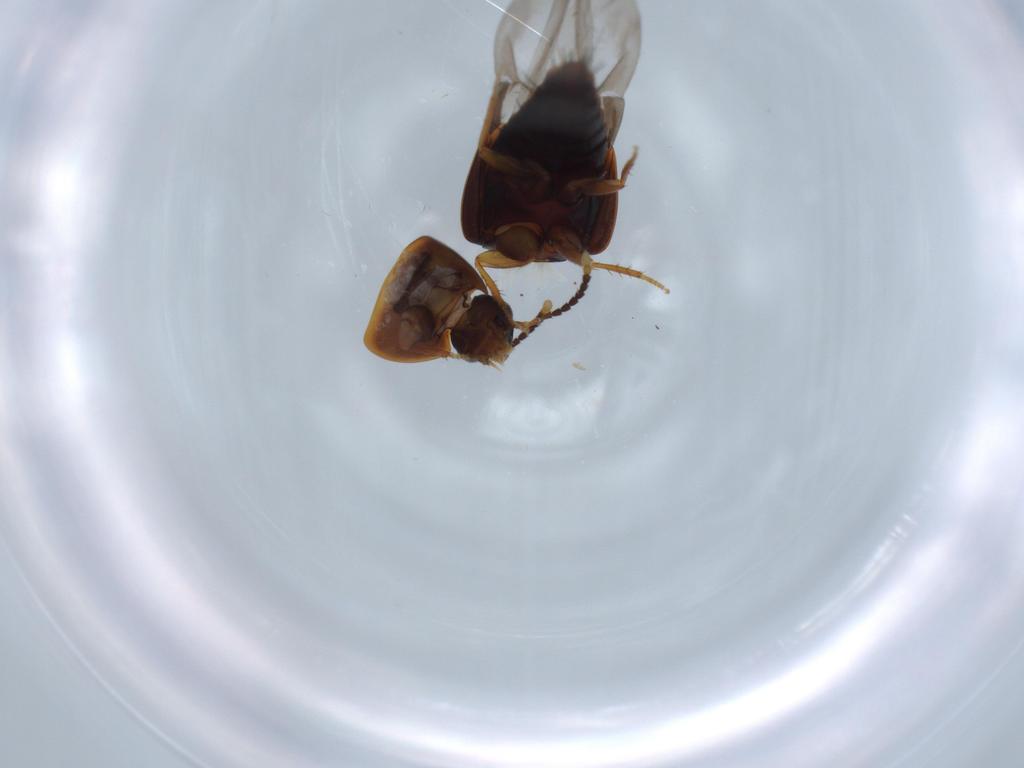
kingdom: Animalia
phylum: Arthropoda
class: Insecta
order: Coleoptera
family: Staphylinidae
